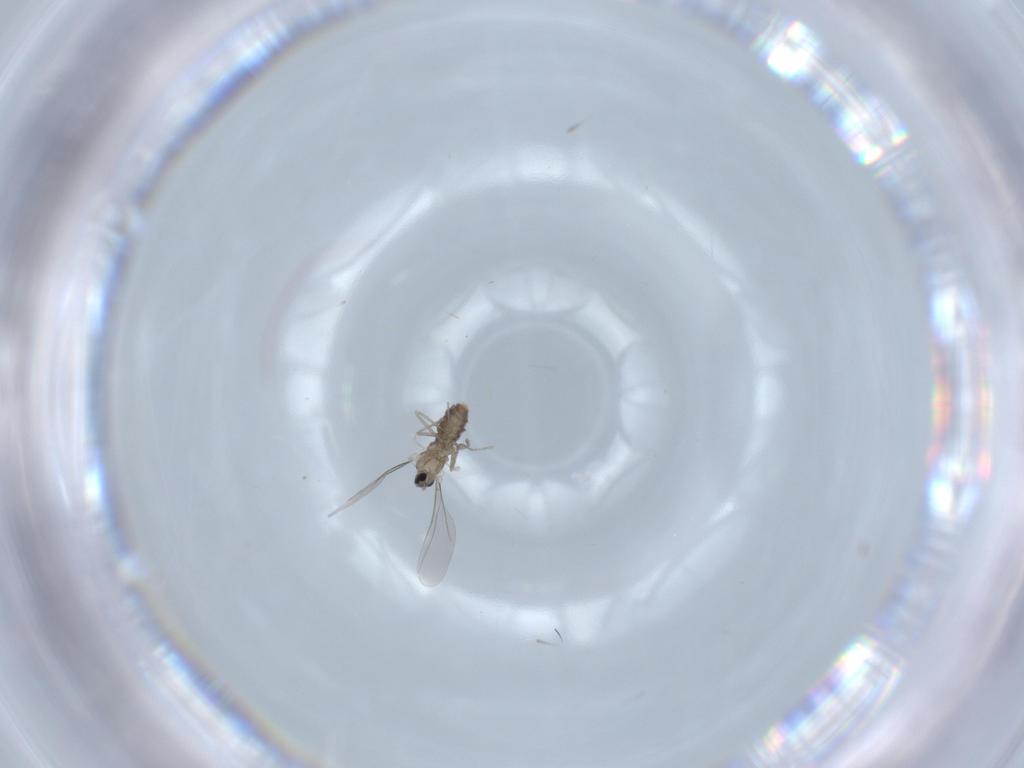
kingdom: Animalia
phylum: Arthropoda
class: Insecta
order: Diptera
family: Cecidomyiidae
